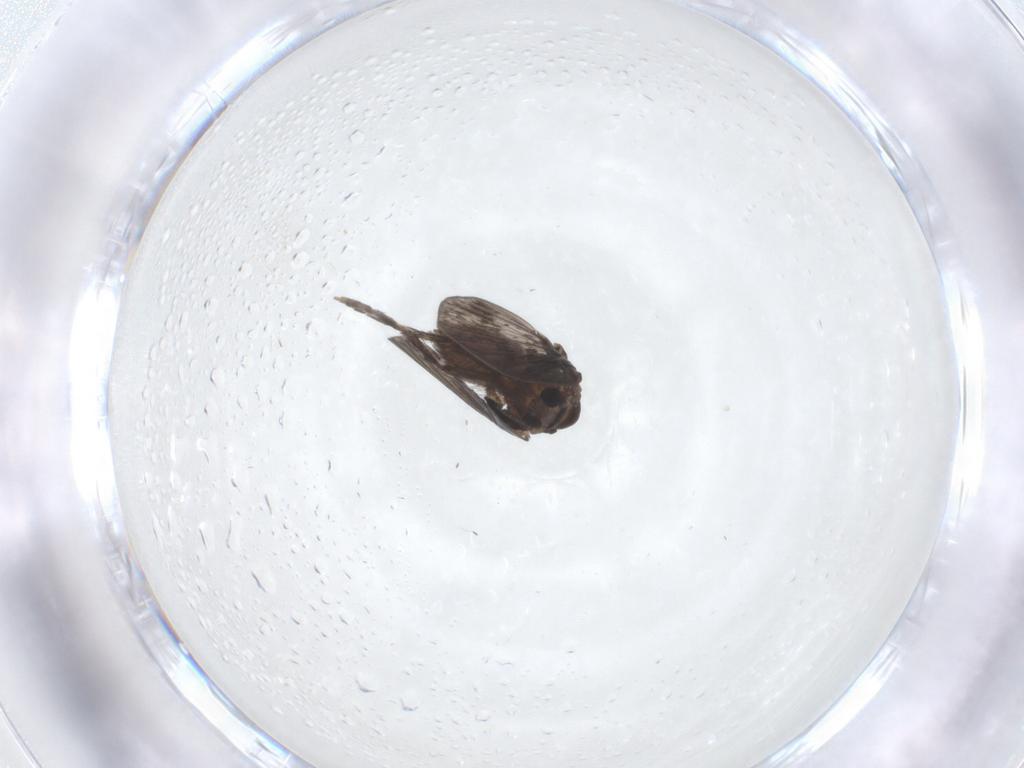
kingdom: Animalia
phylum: Arthropoda
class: Insecta
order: Diptera
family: Psychodidae
